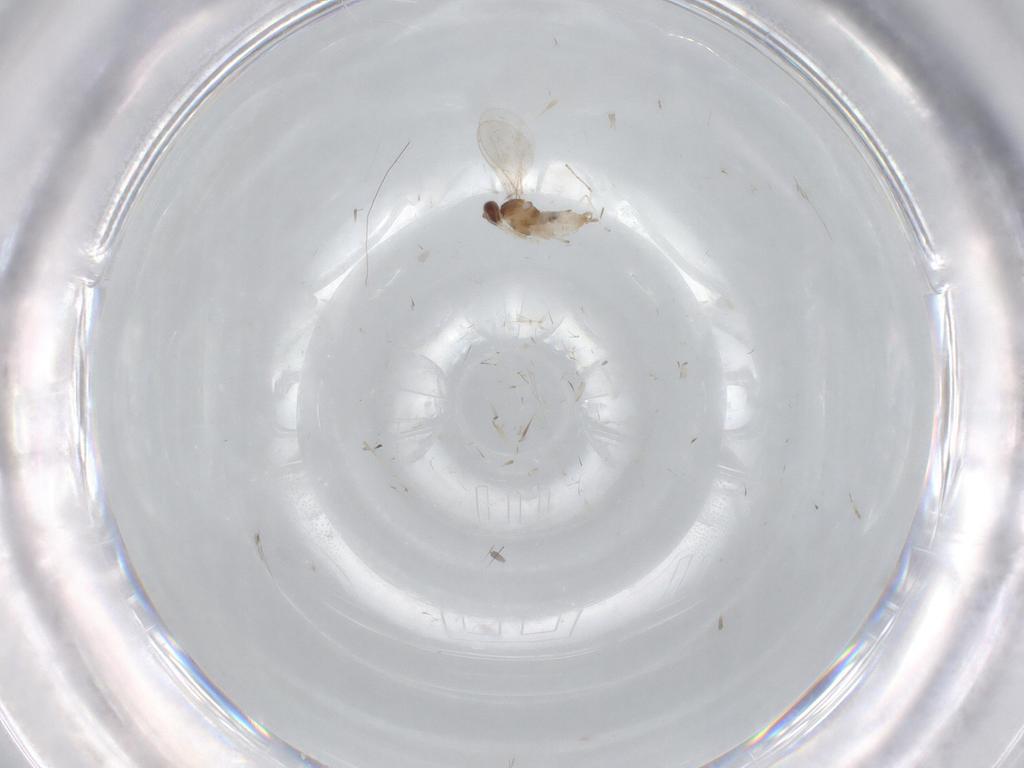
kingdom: Animalia
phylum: Arthropoda
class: Insecta
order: Diptera
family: Cecidomyiidae
